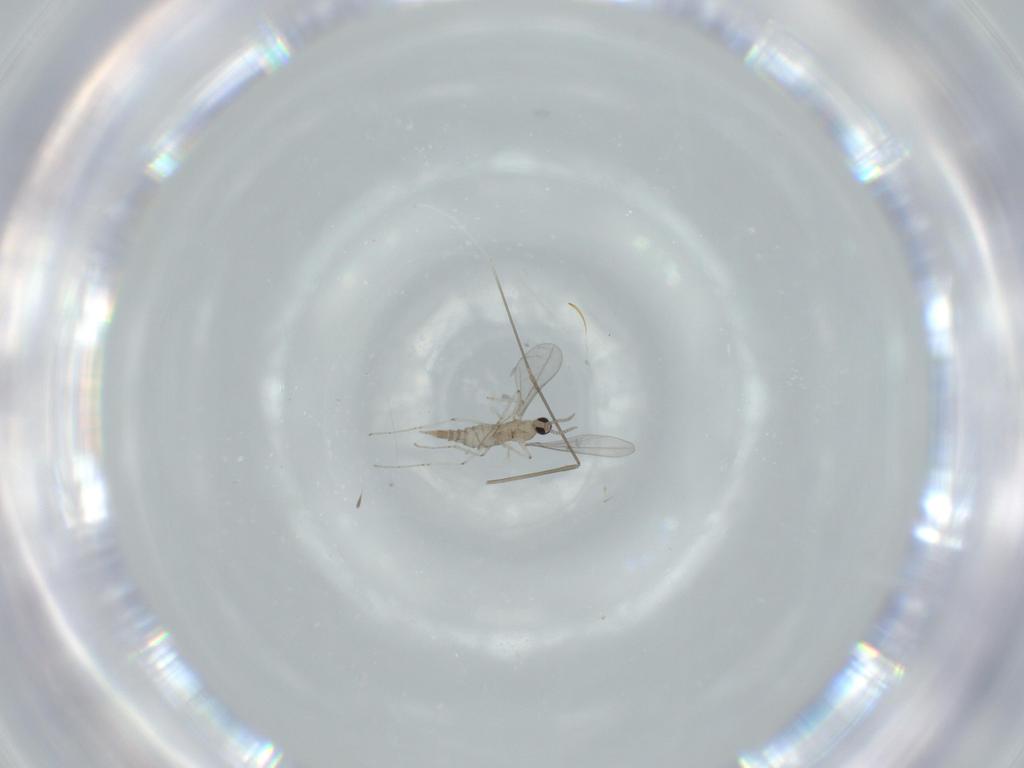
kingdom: Animalia
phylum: Arthropoda
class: Insecta
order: Diptera
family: Cecidomyiidae
